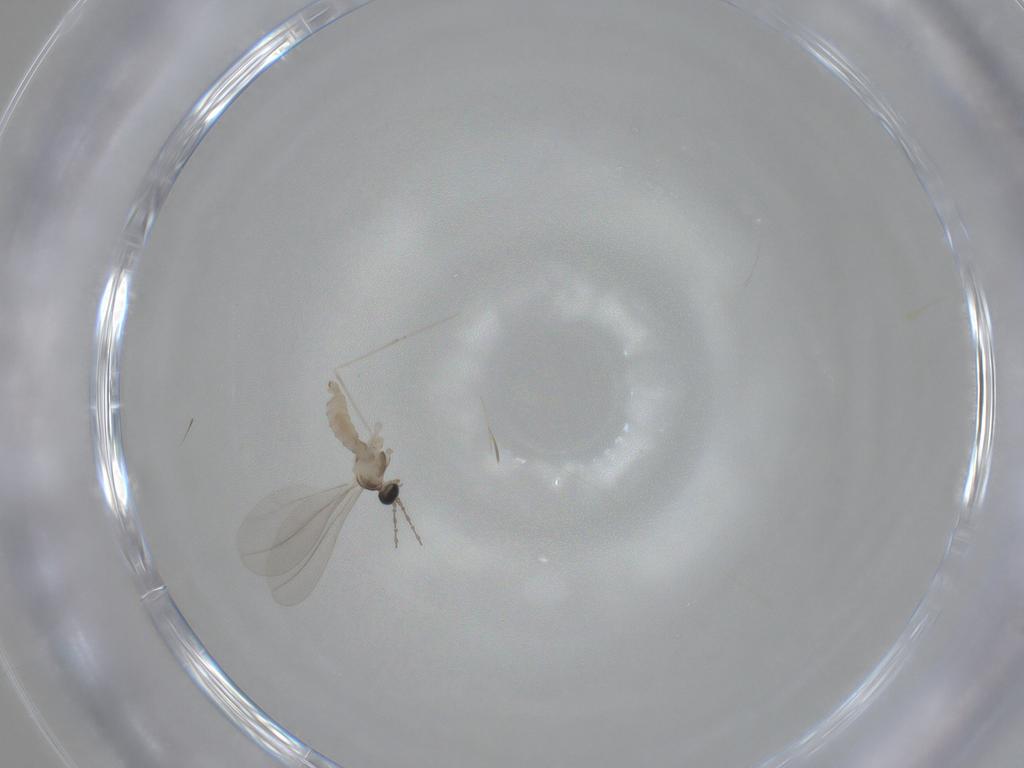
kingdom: Animalia
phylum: Arthropoda
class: Insecta
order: Diptera
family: Cecidomyiidae
